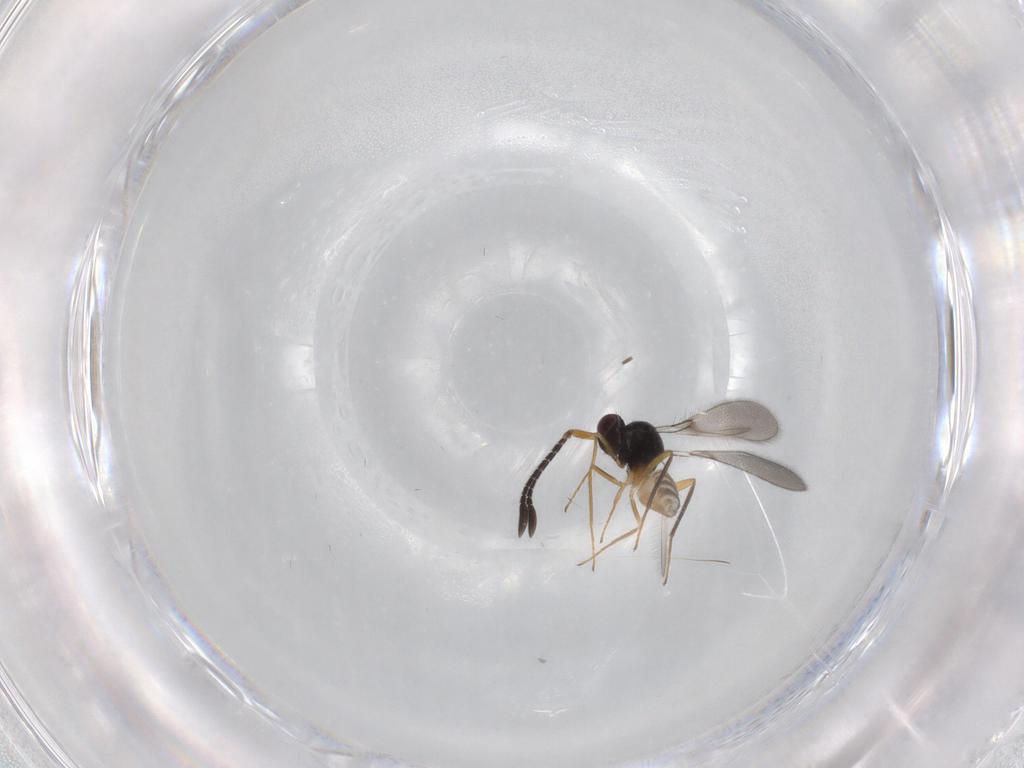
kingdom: Animalia
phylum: Arthropoda
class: Insecta
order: Hymenoptera
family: Mymaridae
